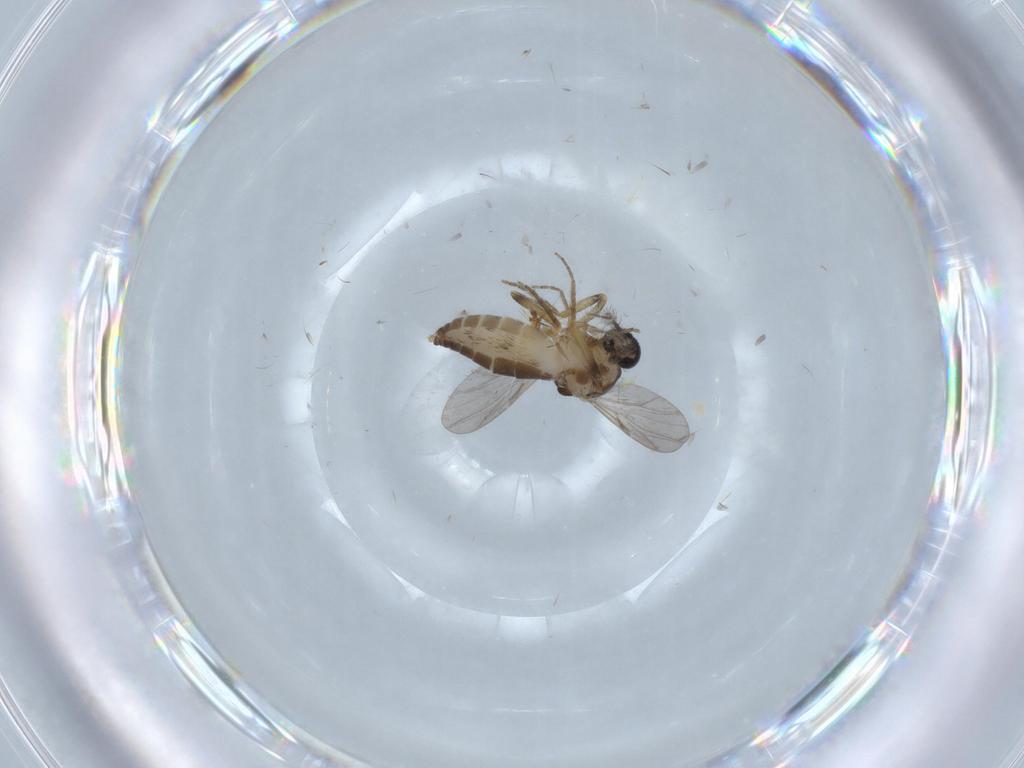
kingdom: Animalia
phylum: Arthropoda
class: Insecta
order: Diptera
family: Ceratopogonidae
